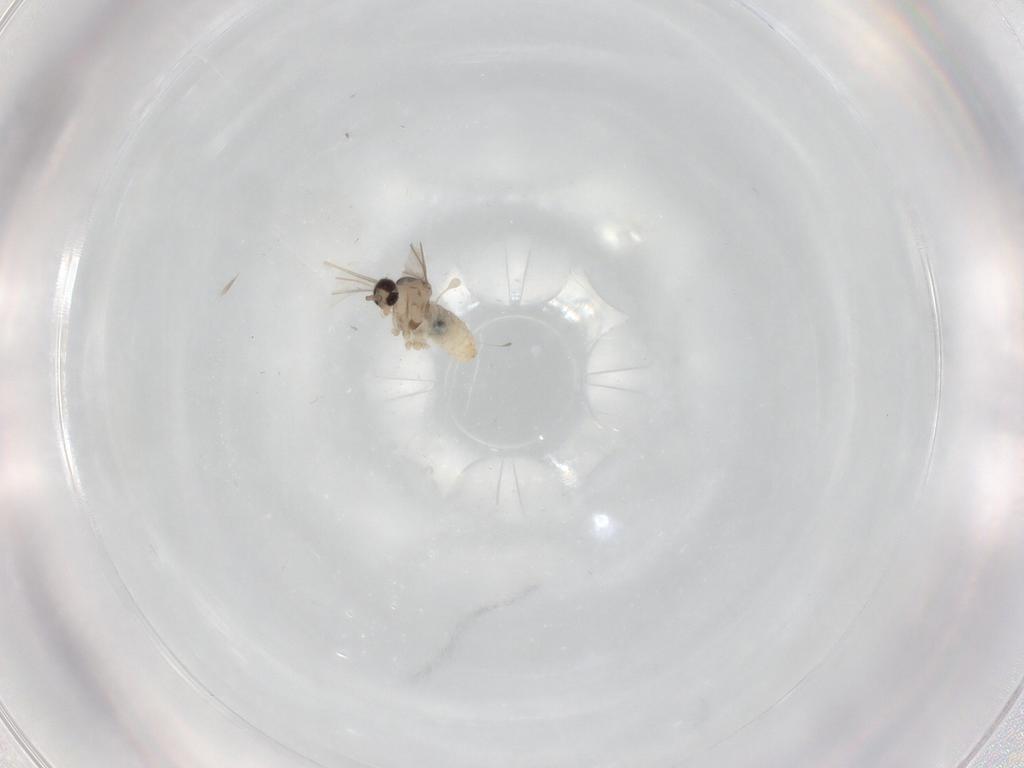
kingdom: Animalia
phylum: Arthropoda
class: Insecta
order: Diptera
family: Cecidomyiidae
